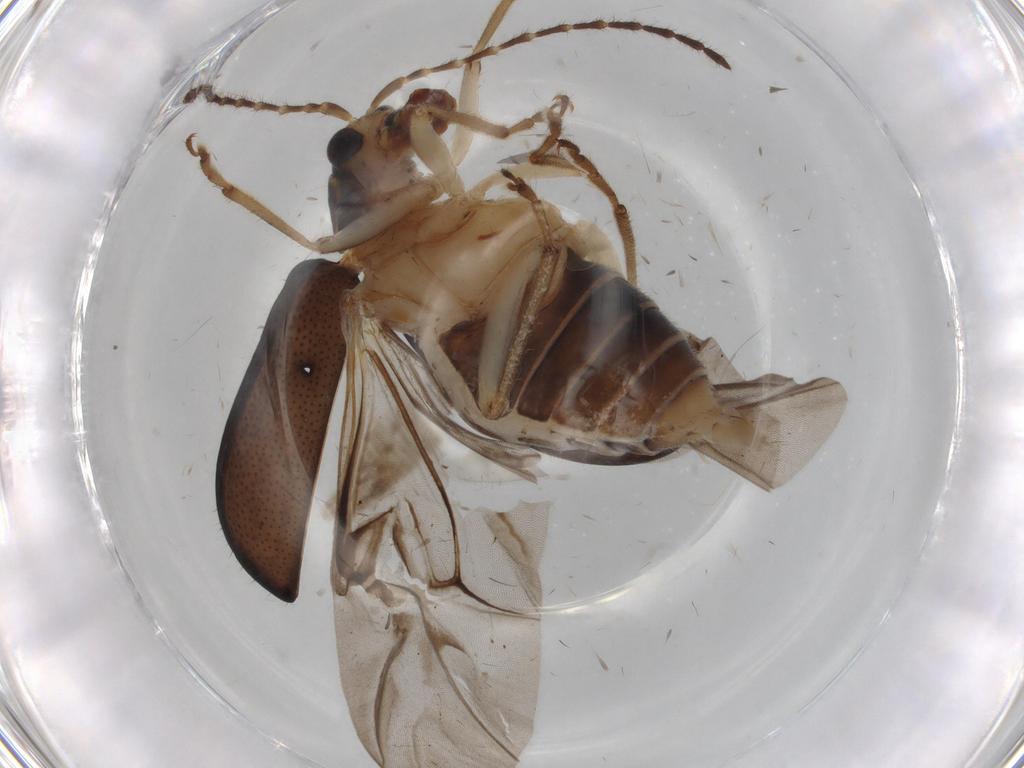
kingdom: Animalia
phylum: Arthropoda
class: Insecta
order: Coleoptera
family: Chrysomelidae
